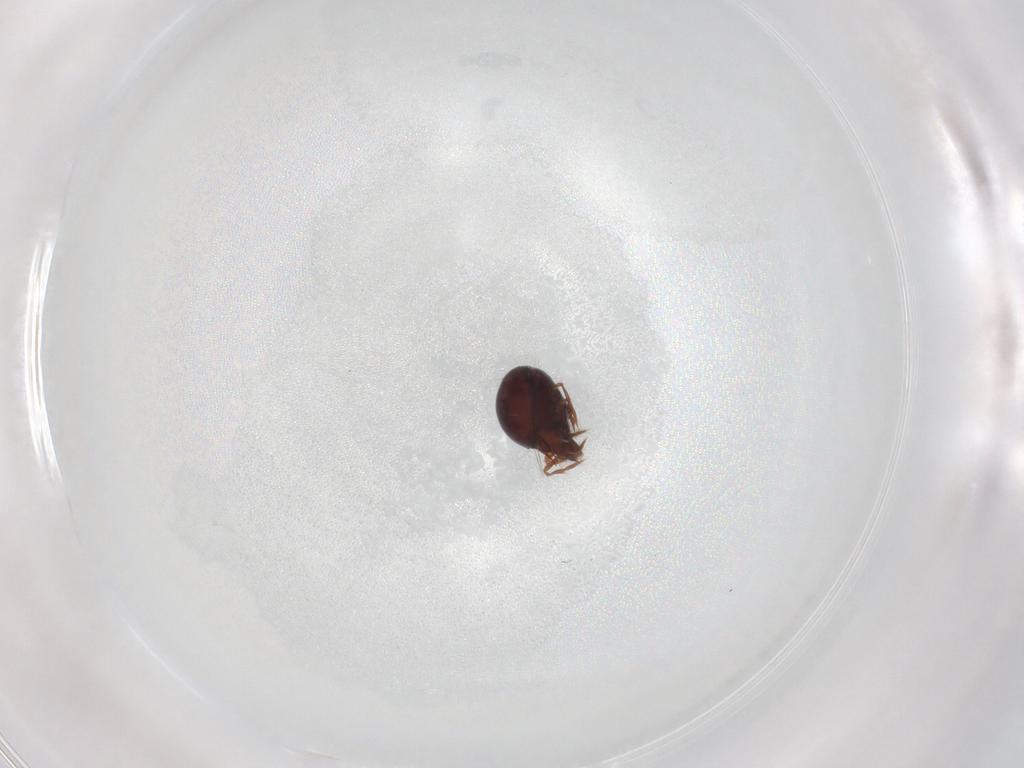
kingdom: Animalia
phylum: Arthropoda
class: Arachnida
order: Sarcoptiformes
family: Ceratoppiidae
